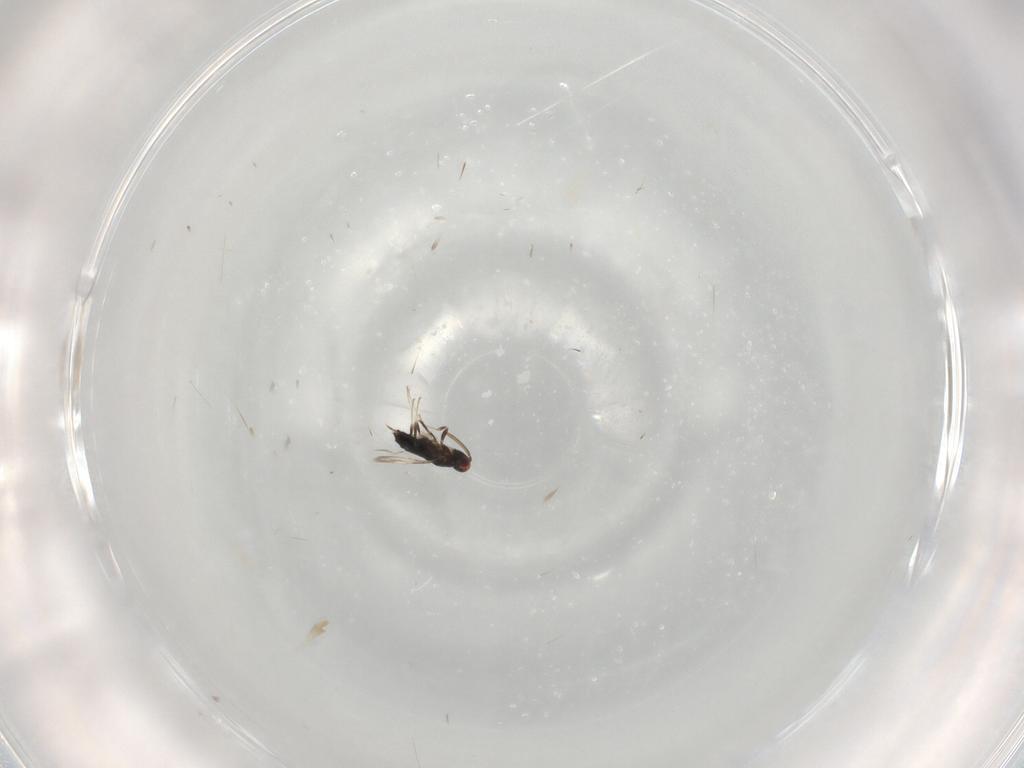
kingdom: Animalia
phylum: Arthropoda
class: Insecta
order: Hymenoptera
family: Signiphoridae
